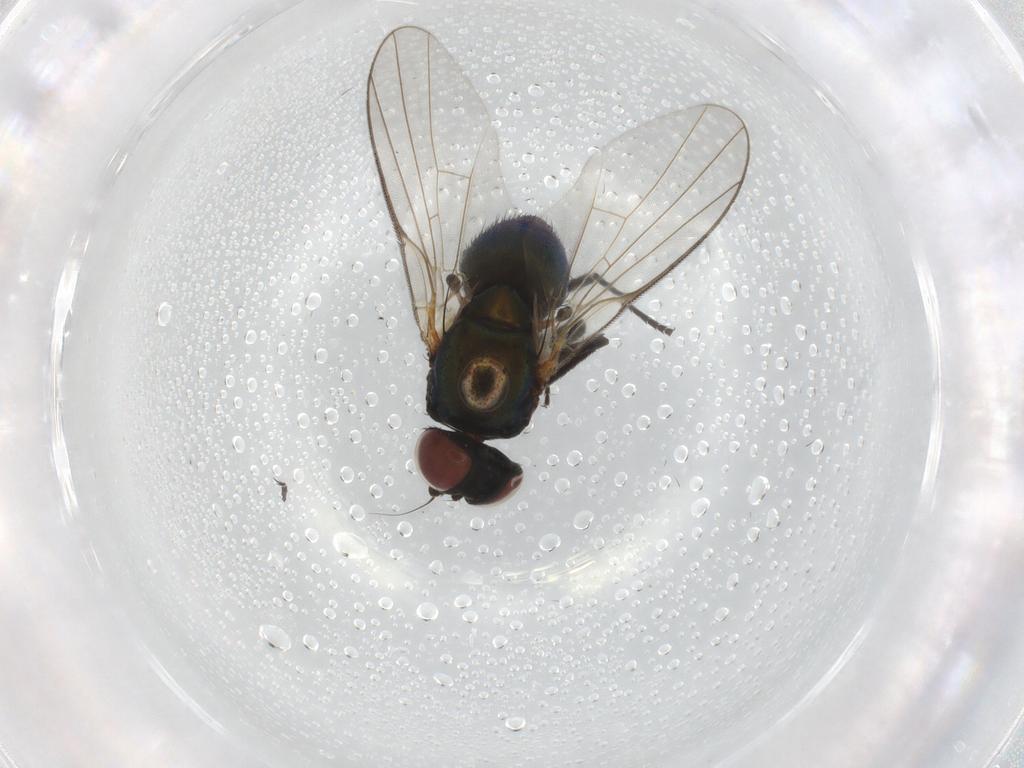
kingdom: Animalia
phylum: Arthropoda
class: Insecta
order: Diptera
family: Agromyzidae
